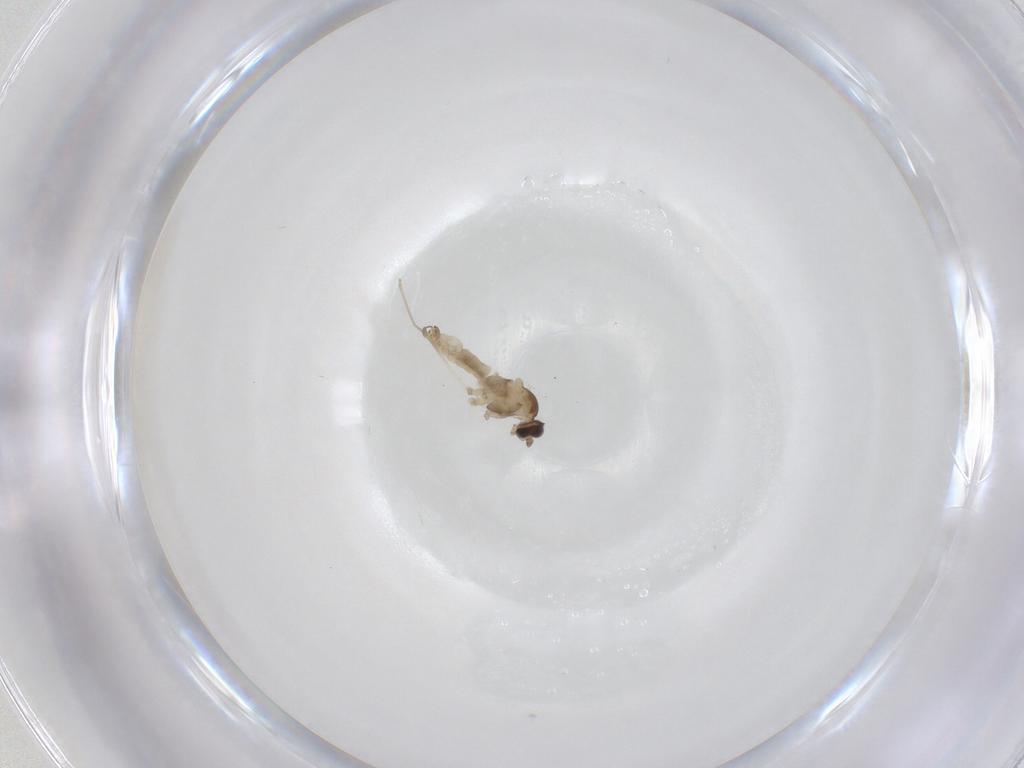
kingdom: Animalia
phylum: Arthropoda
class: Insecta
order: Diptera
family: Cecidomyiidae
